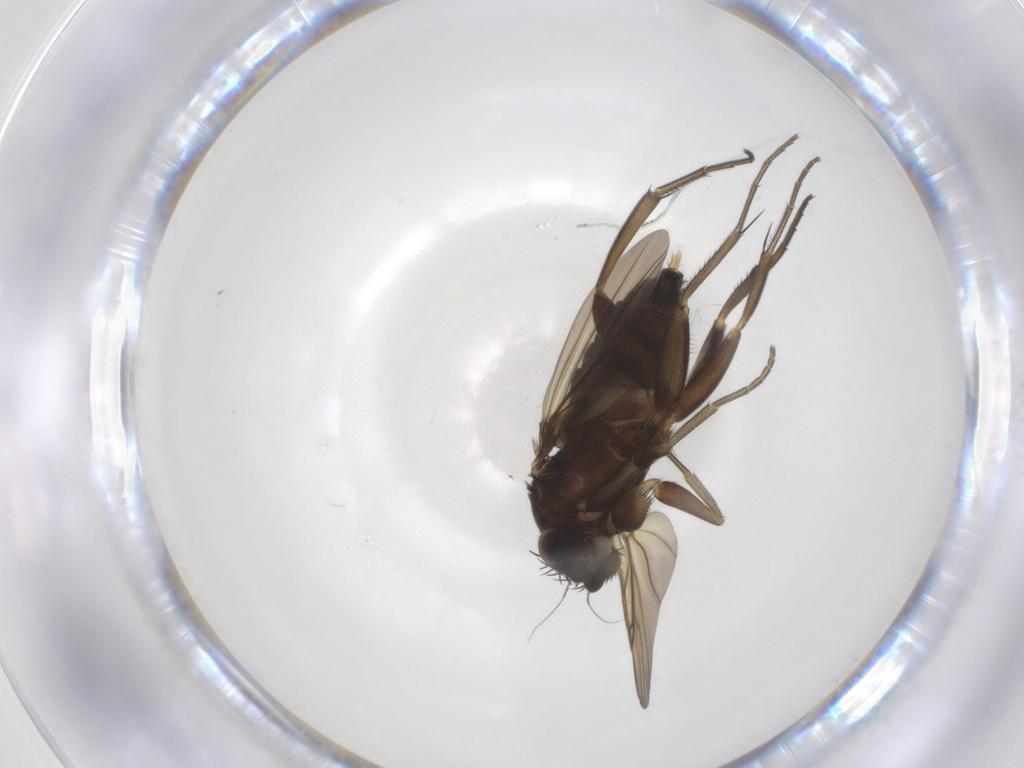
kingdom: Animalia
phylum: Arthropoda
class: Insecta
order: Diptera
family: Phoridae
